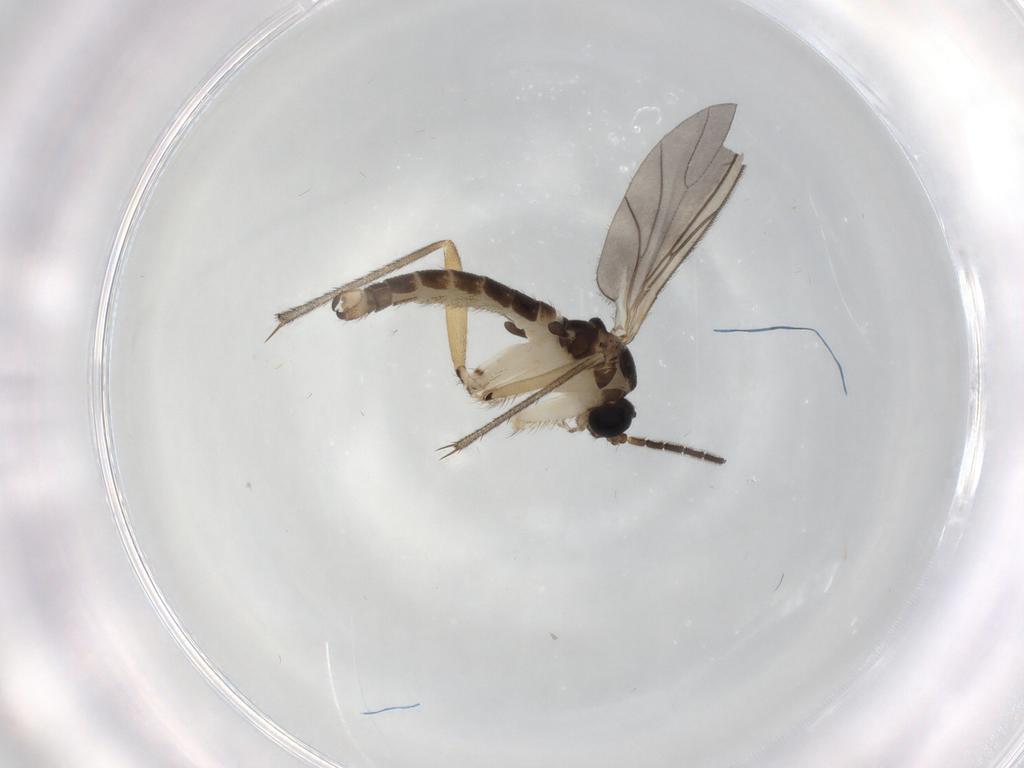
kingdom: Animalia
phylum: Arthropoda
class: Insecta
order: Diptera
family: Sciaridae
